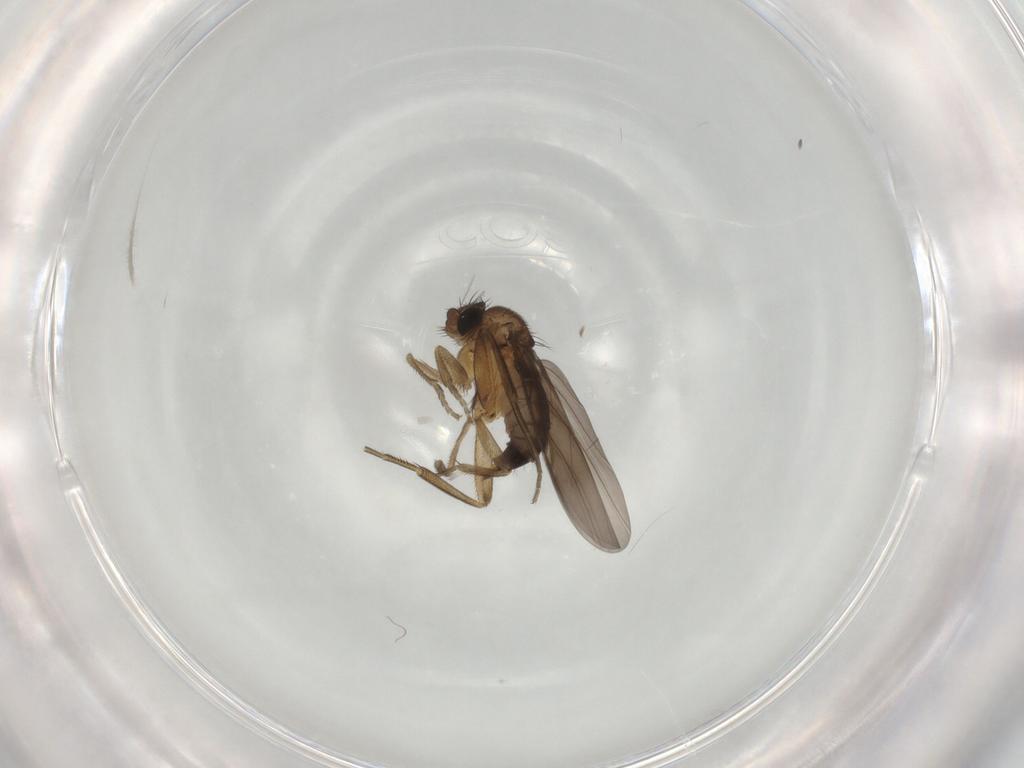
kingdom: Animalia
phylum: Arthropoda
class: Insecta
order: Diptera
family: Phoridae
